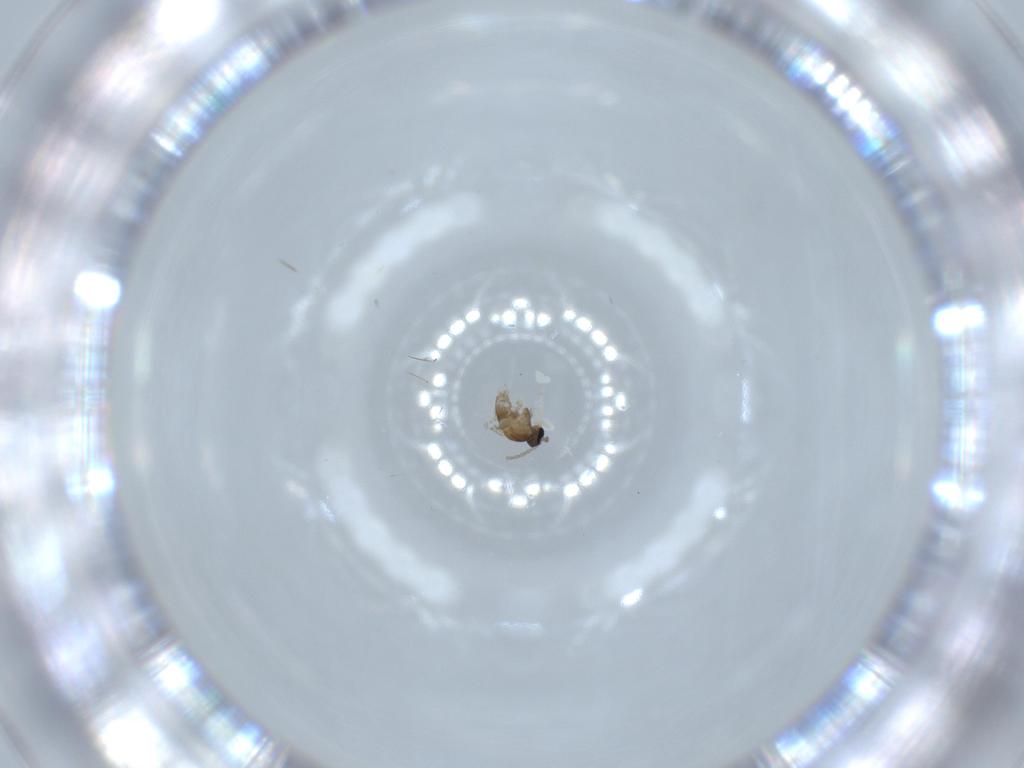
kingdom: Animalia
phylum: Arthropoda
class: Insecta
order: Diptera
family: Cecidomyiidae
